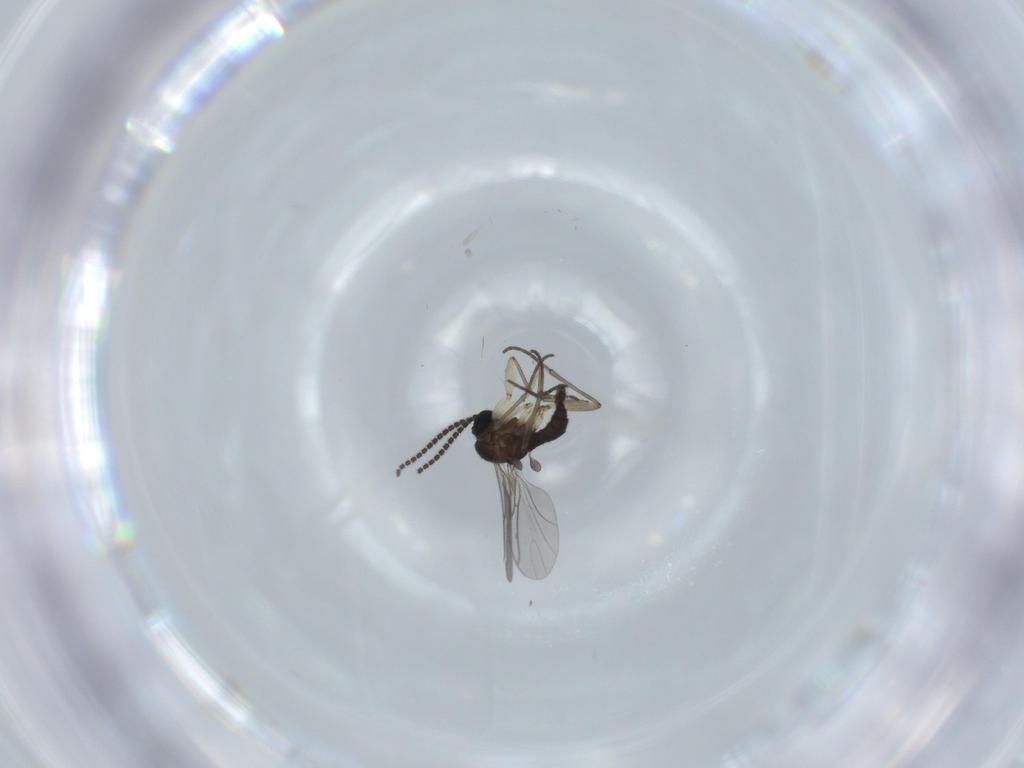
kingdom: Animalia
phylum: Arthropoda
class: Insecta
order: Diptera
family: Sciaridae
